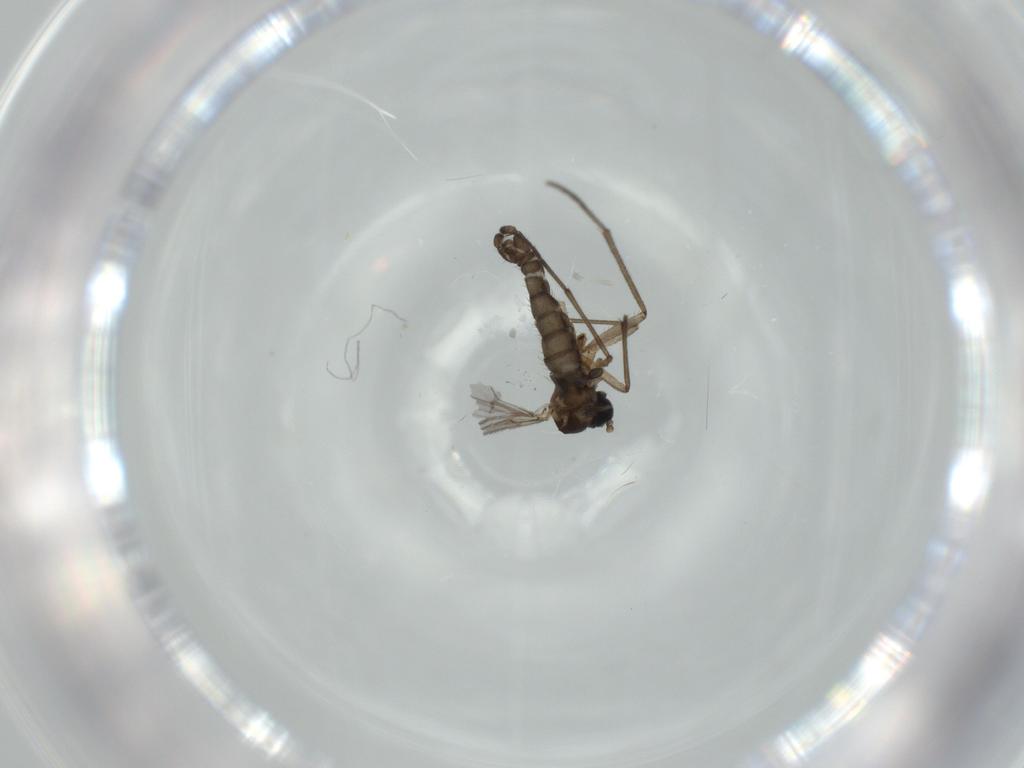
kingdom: Animalia
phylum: Arthropoda
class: Insecta
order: Diptera
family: Sciaridae
